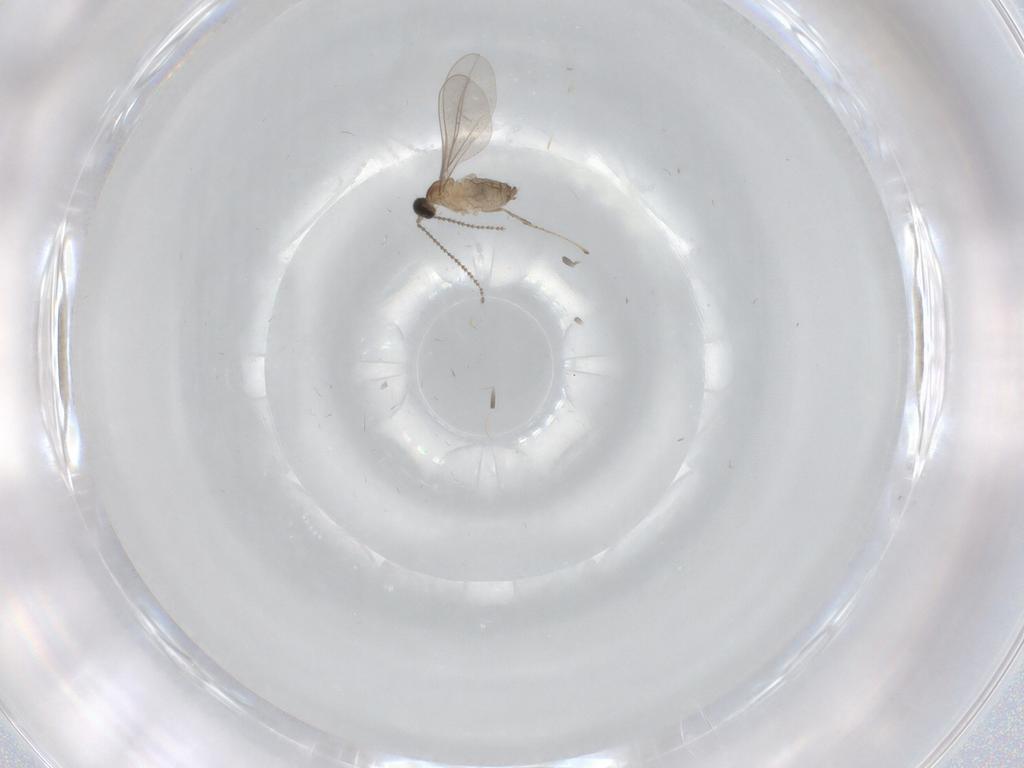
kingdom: Animalia
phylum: Arthropoda
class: Insecta
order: Diptera
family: Cecidomyiidae
